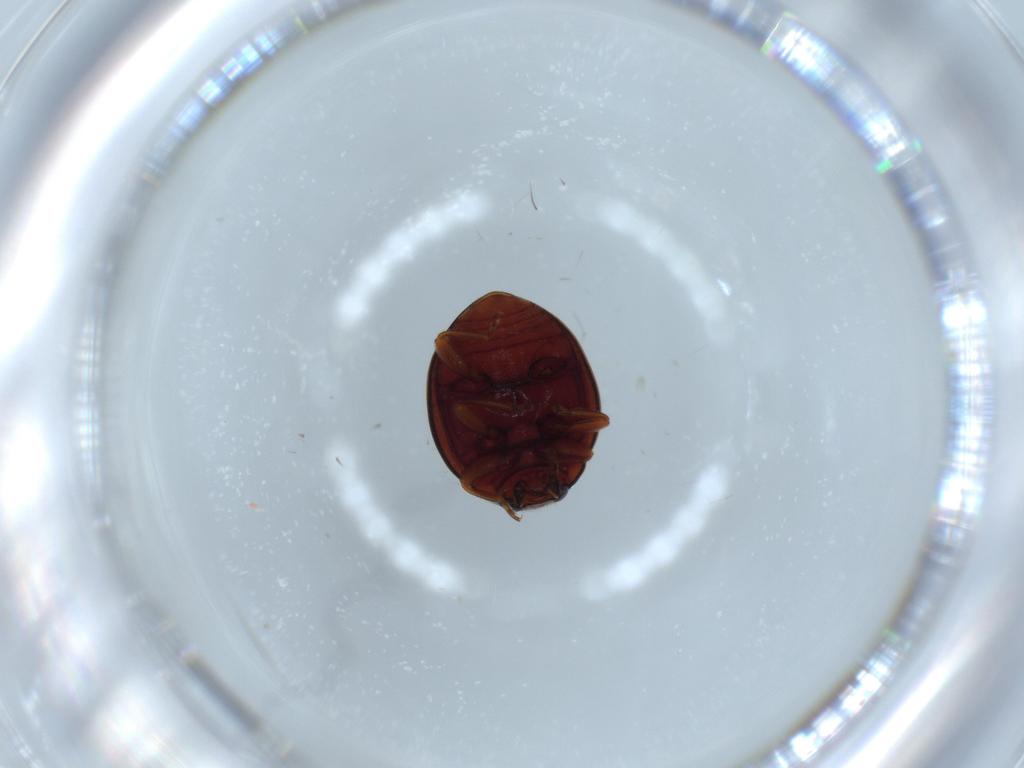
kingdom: Animalia
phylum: Arthropoda
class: Insecta
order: Coleoptera
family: Coccinellidae
